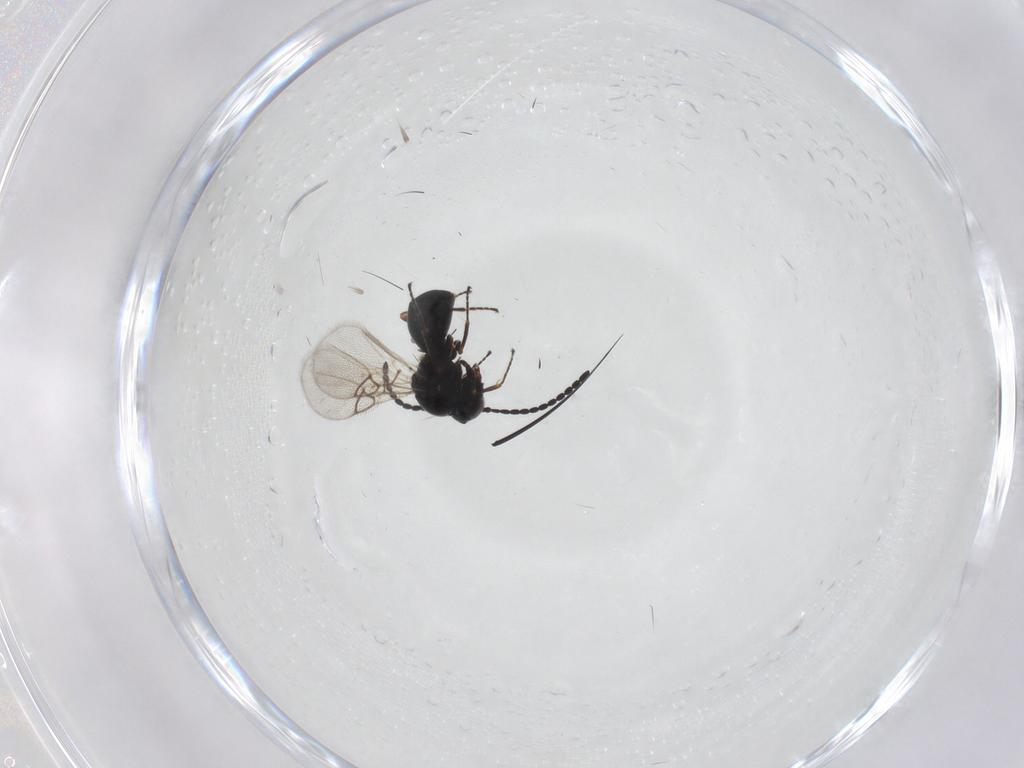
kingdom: Animalia
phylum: Arthropoda
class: Insecta
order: Hymenoptera
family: Figitidae
